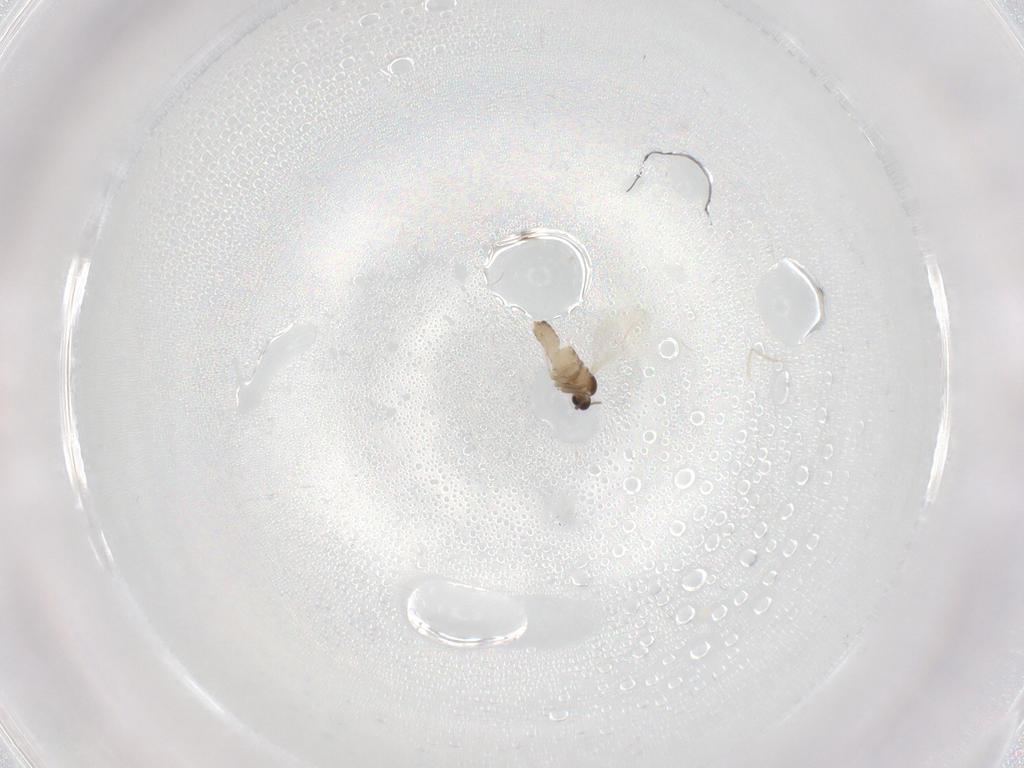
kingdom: Animalia
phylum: Arthropoda
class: Insecta
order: Diptera
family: Cecidomyiidae
